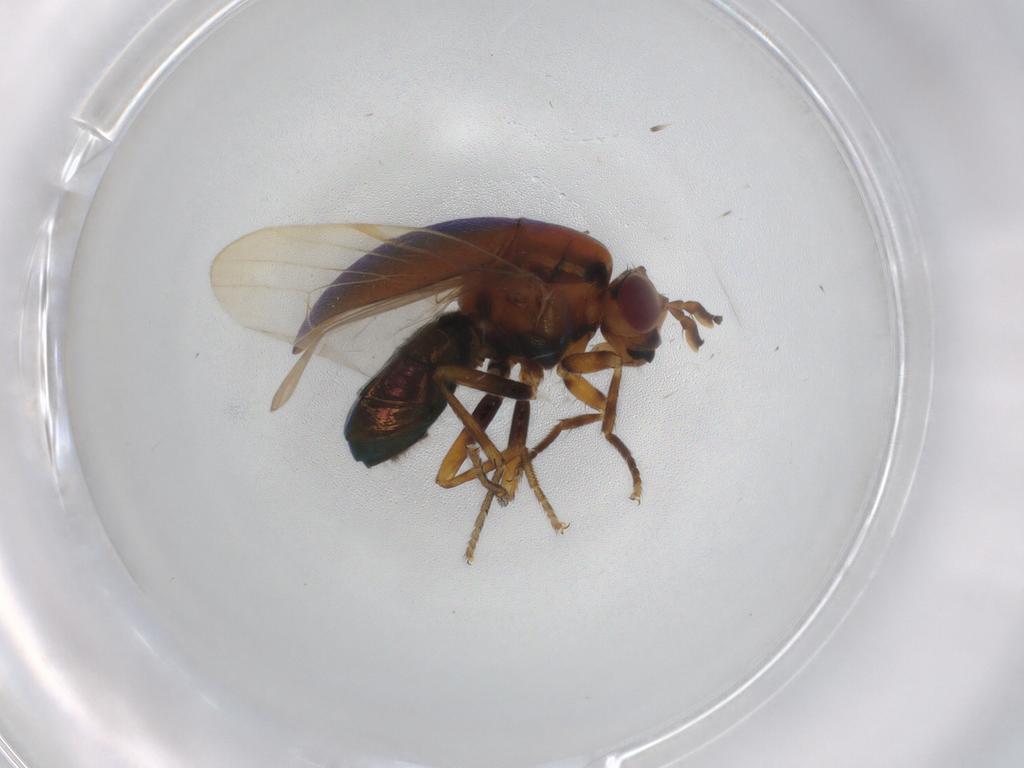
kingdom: Animalia
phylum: Arthropoda
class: Insecta
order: Diptera
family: Celyphidae
